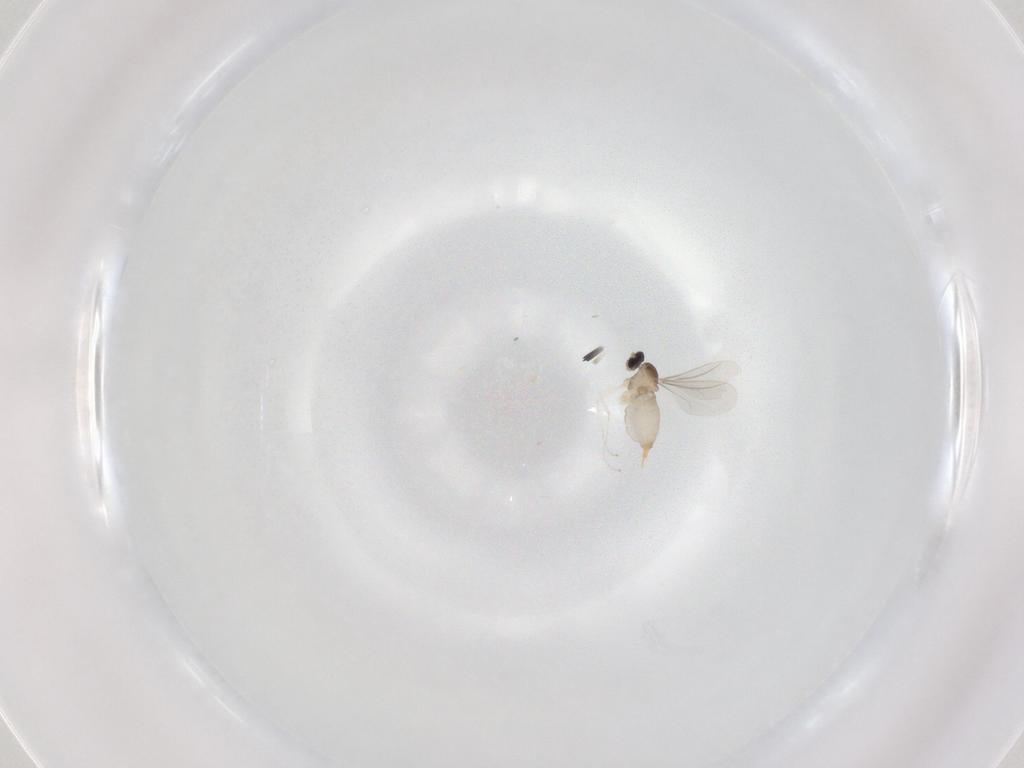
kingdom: Animalia
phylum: Arthropoda
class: Insecta
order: Diptera
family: Cecidomyiidae
